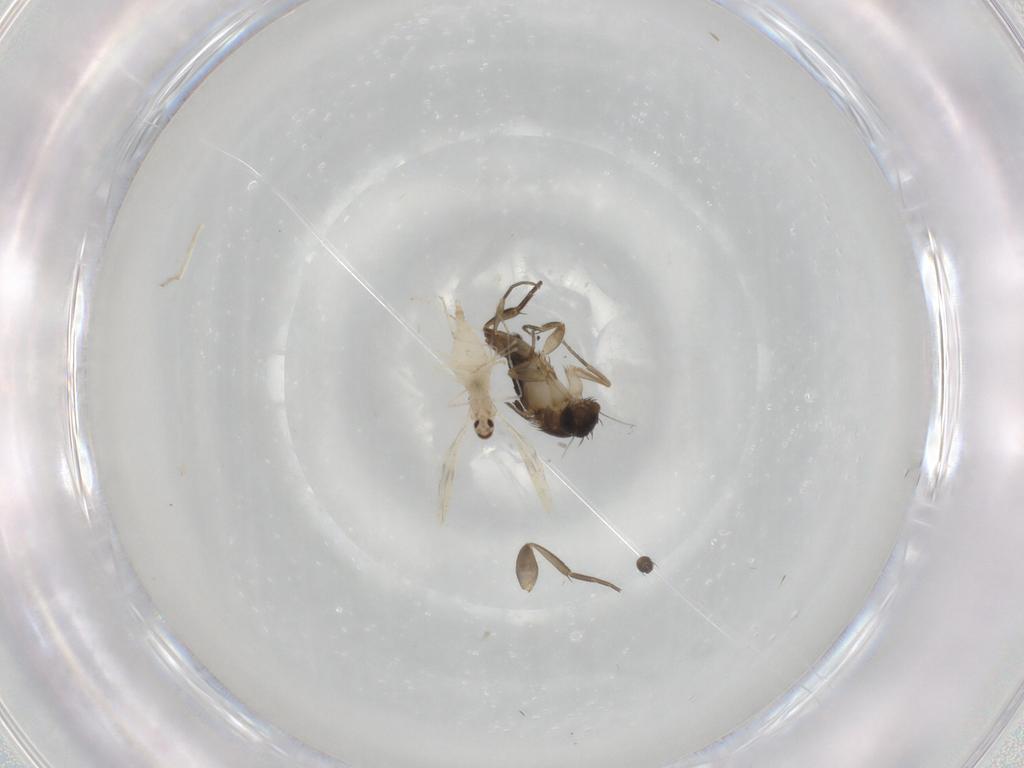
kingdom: Animalia
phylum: Arthropoda
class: Insecta
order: Diptera
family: Phoridae
